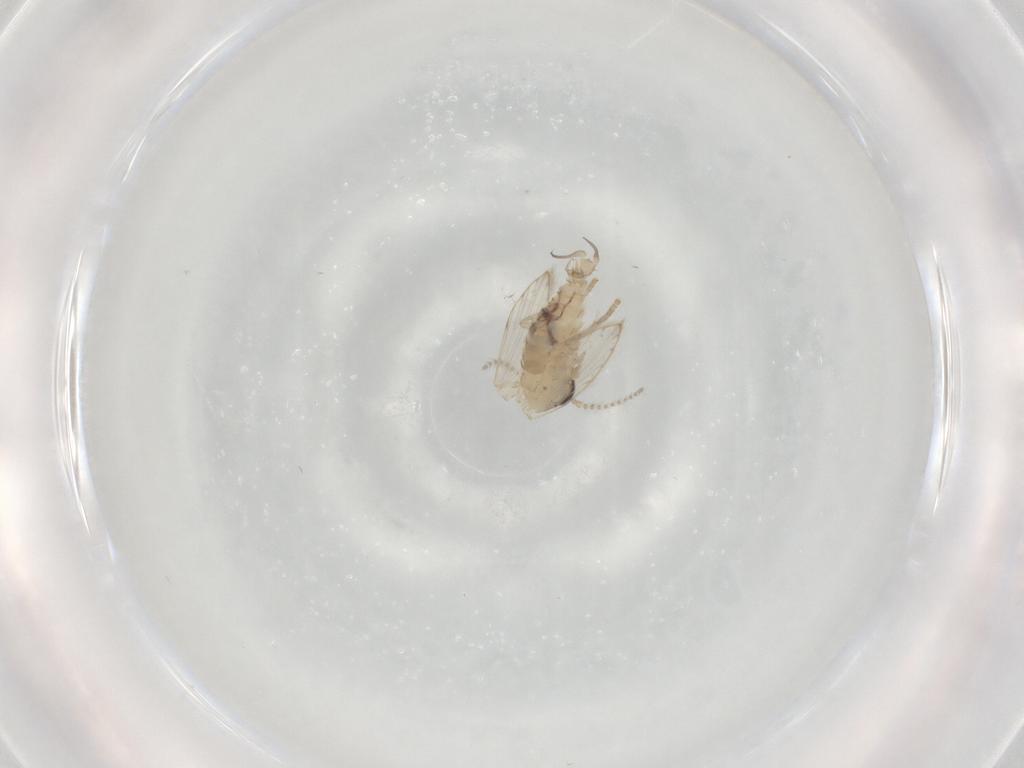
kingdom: Animalia
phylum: Arthropoda
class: Insecta
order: Diptera
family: Psychodidae
